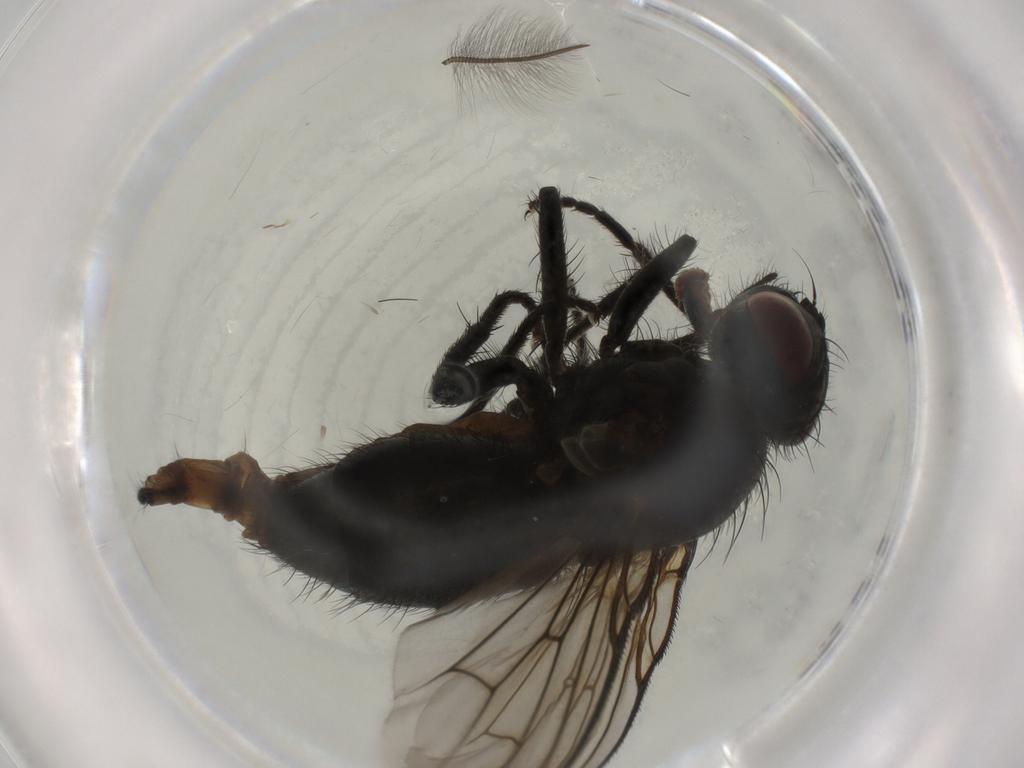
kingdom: Animalia
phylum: Arthropoda
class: Insecta
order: Diptera
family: Muscidae
